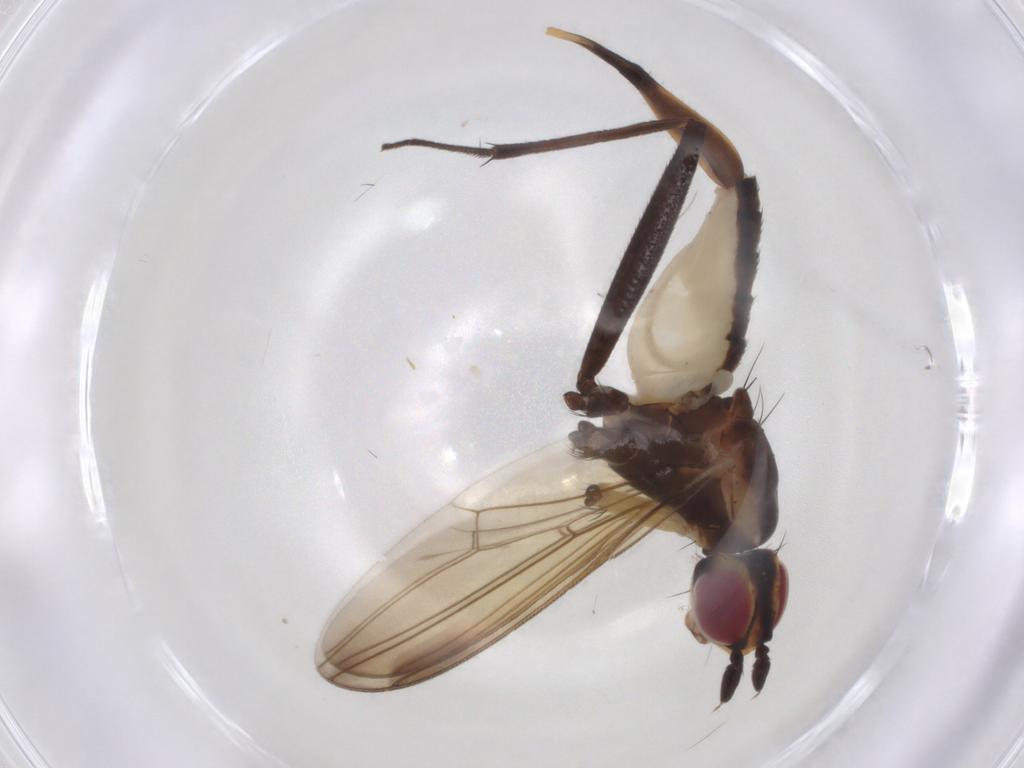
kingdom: Animalia
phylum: Arthropoda
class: Insecta
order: Diptera
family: Neriidae
